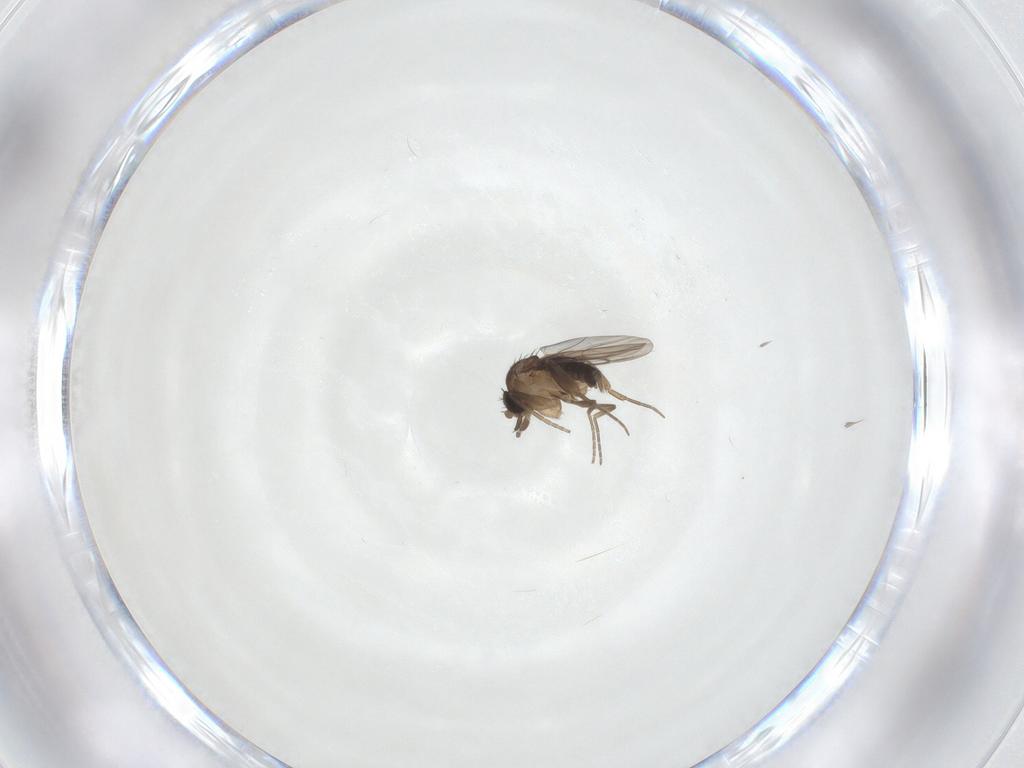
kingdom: Animalia
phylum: Arthropoda
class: Insecta
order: Diptera
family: Phoridae
